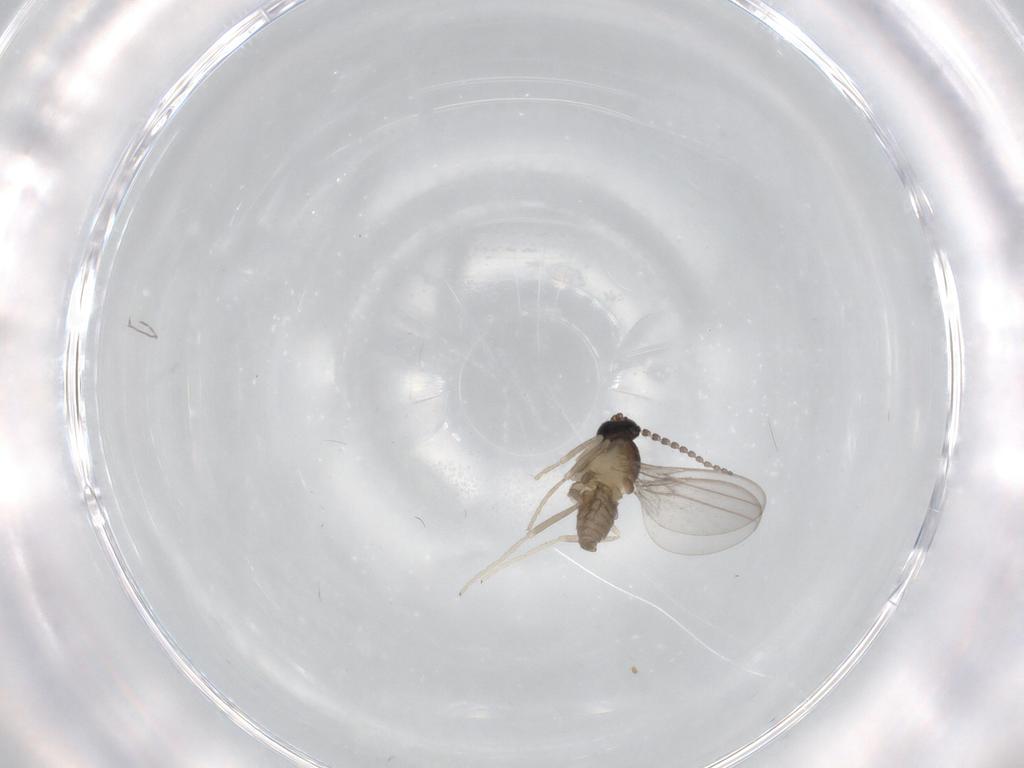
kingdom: Animalia
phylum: Arthropoda
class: Insecta
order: Diptera
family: Cecidomyiidae
